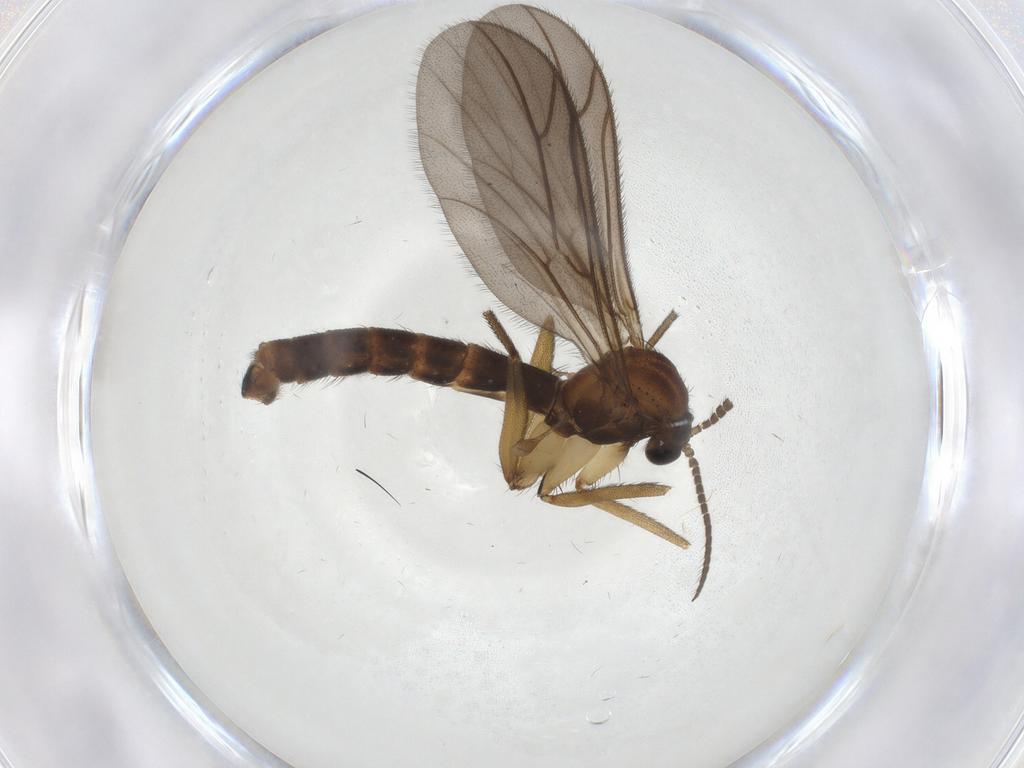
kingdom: Animalia
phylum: Arthropoda
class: Insecta
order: Diptera
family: Ditomyiidae
